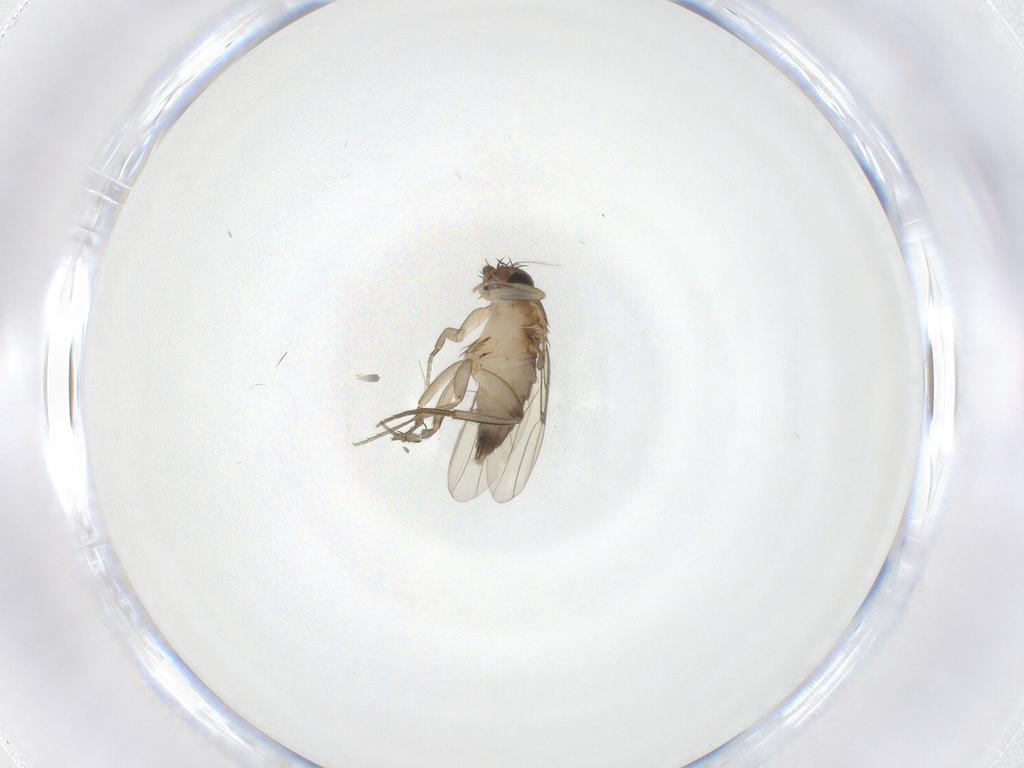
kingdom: Animalia
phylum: Arthropoda
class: Insecta
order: Diptera
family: Phoridae
